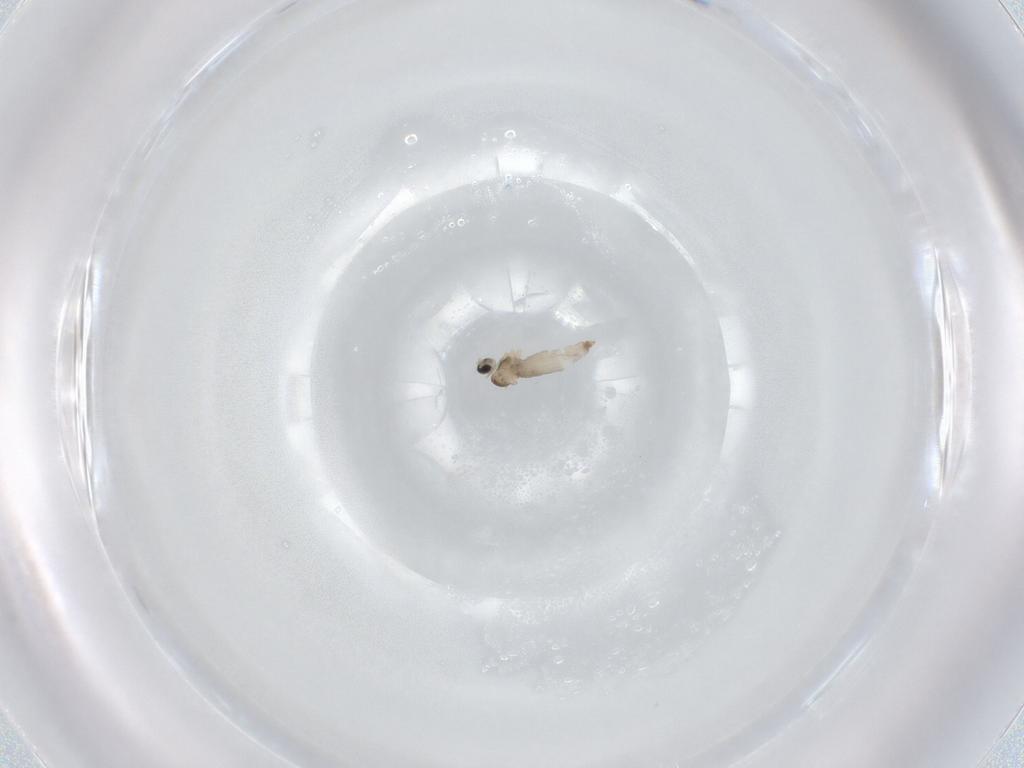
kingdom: Animalia
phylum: Arthropoda
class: Insecta
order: Diptera
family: Cecidomyiidae
